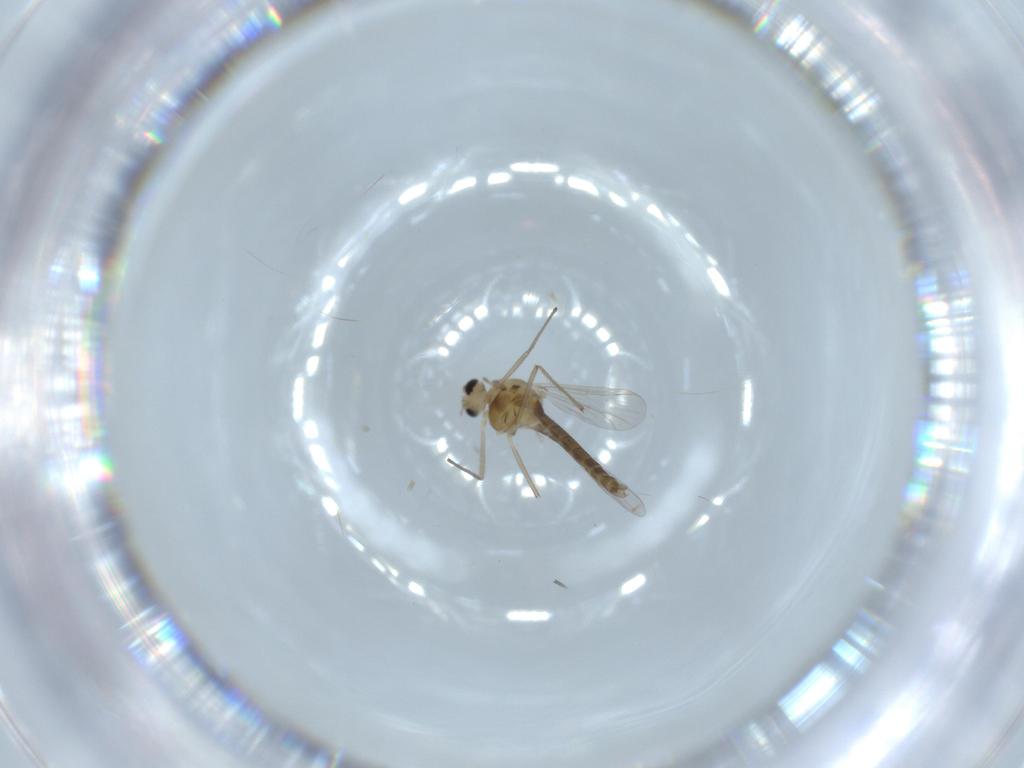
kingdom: Animalia
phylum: Arthropoda
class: Insecta
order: Diptera
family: Chironomidae
